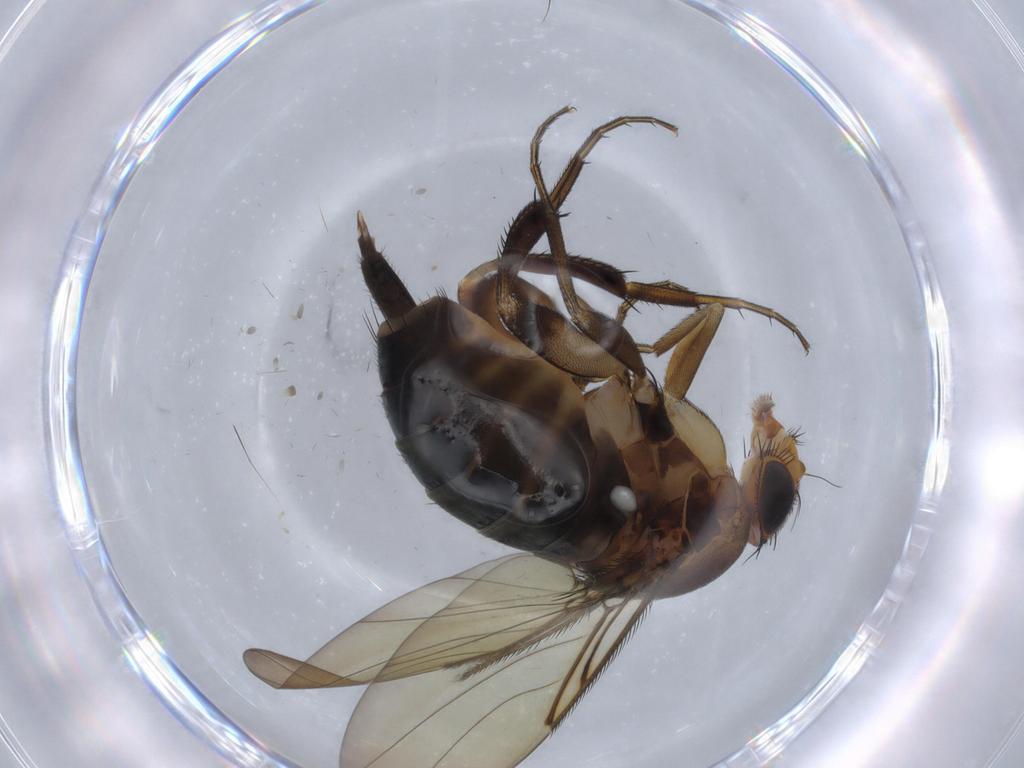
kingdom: Animalia
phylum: Arthropoda
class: Insecta
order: Diptera
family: Phoridae
